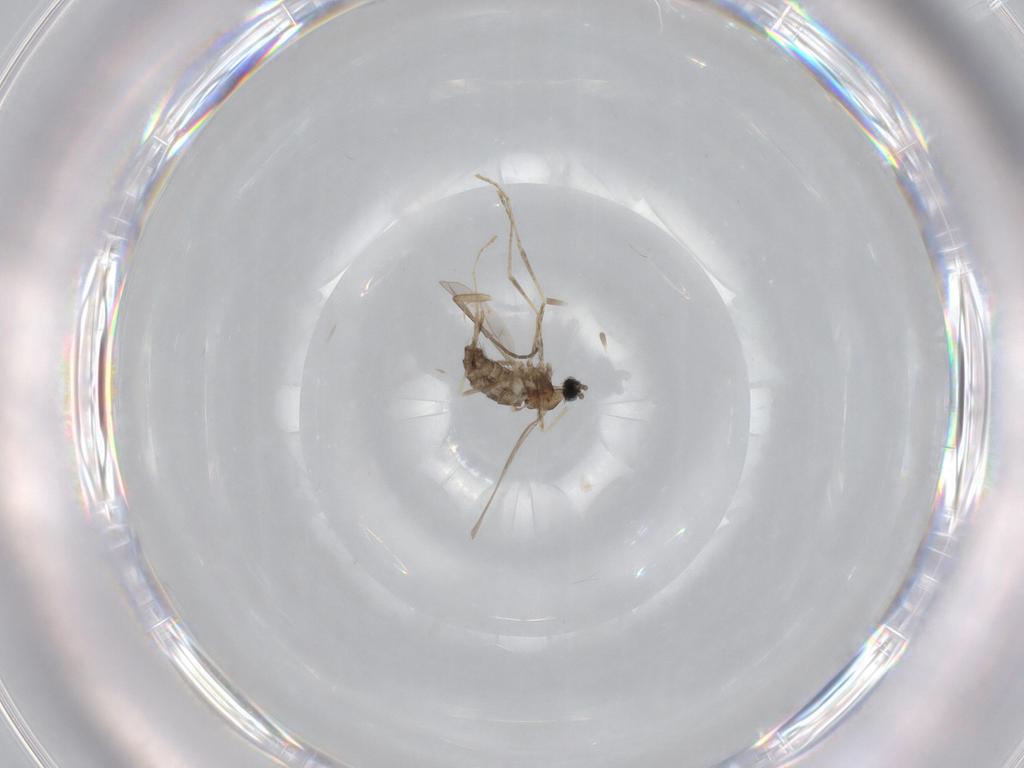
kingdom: Animalia
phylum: Arthropoda
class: Insecta
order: Diptera
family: Cecidomyiidae
